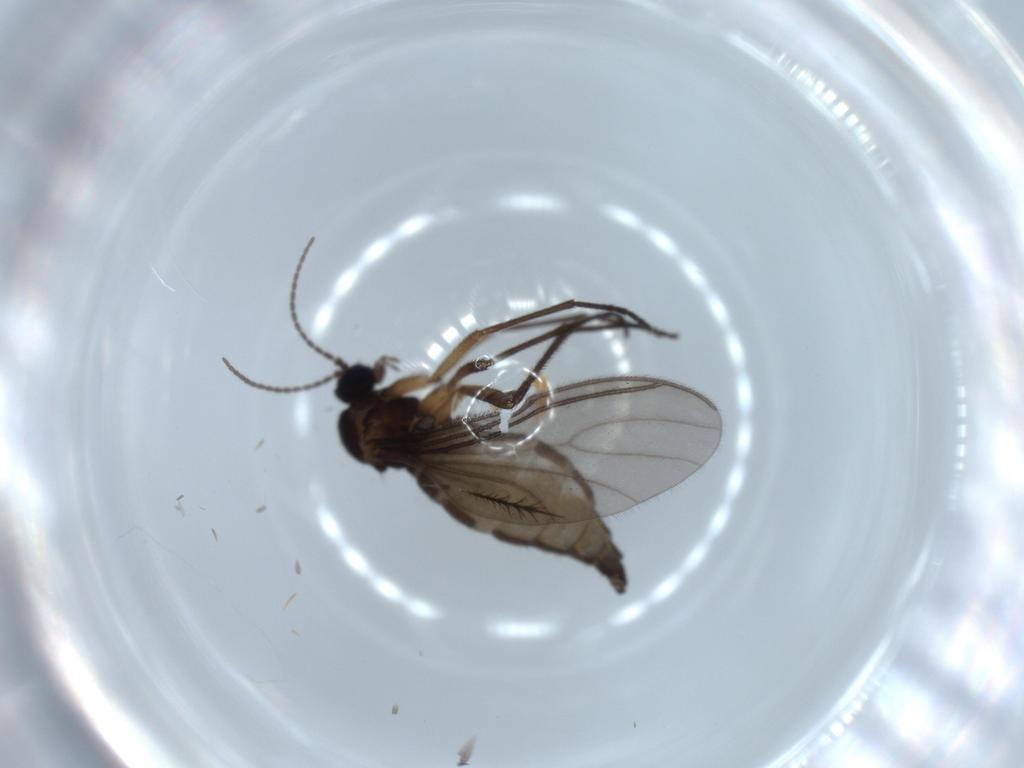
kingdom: Animalia
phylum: Arthropoda
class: Insecta
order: Diptera
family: Sciaridae
